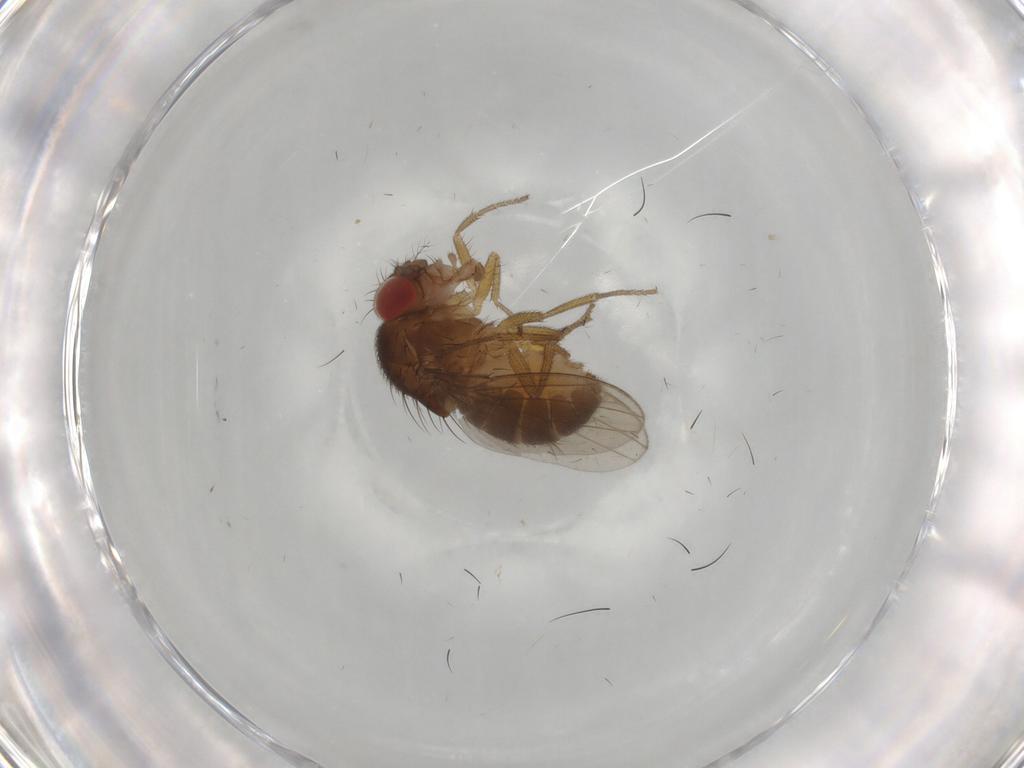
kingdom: Animalia
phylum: Arthropoda
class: Insecta
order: Diptera
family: Drosophilidae
